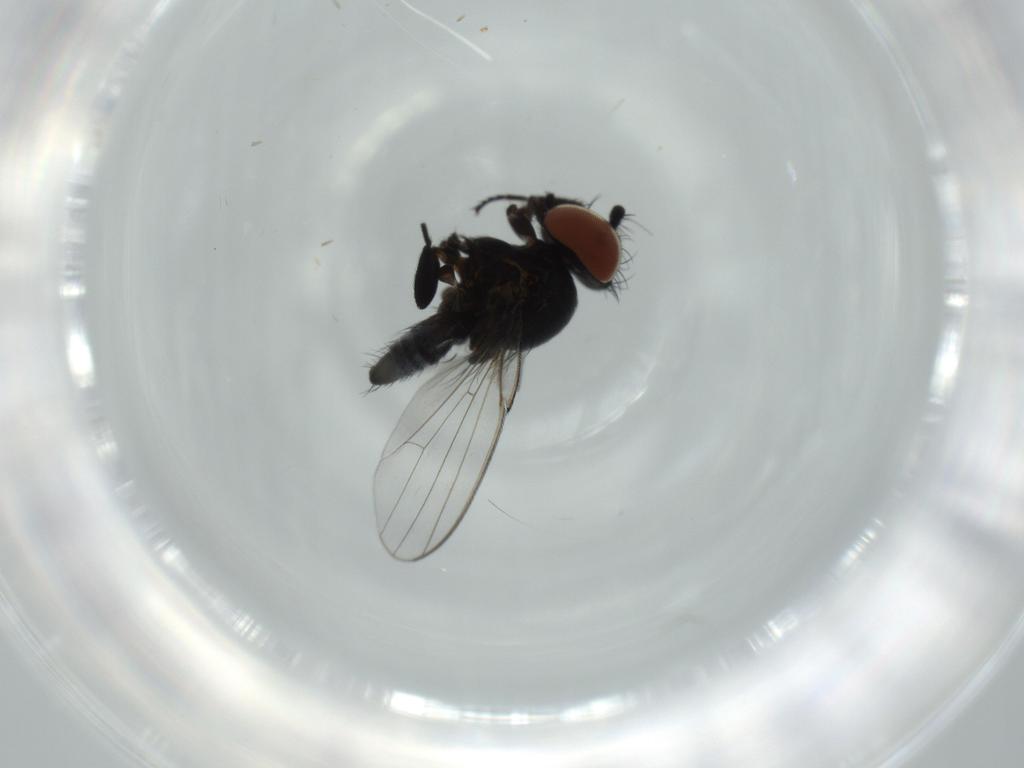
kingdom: Animalia
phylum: Arthropoda
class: Insecta
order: Diptera
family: Milichiidae
